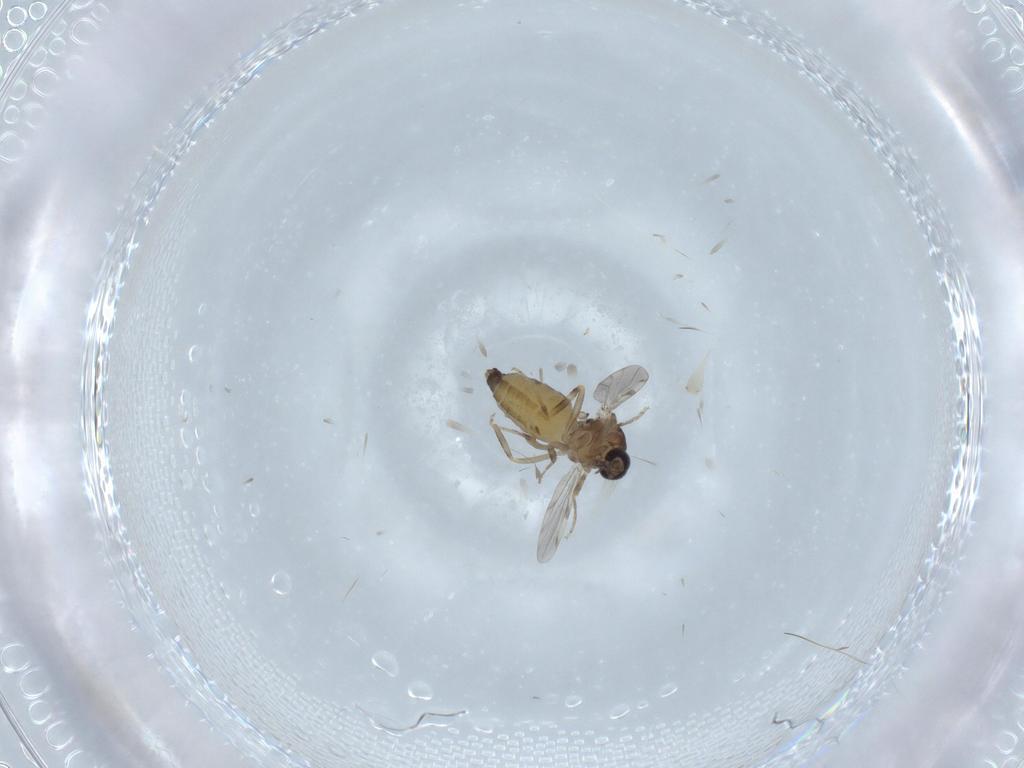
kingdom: Animalia
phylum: Arthropoda
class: Insecta
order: Diptera
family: Ceratopogonidae
